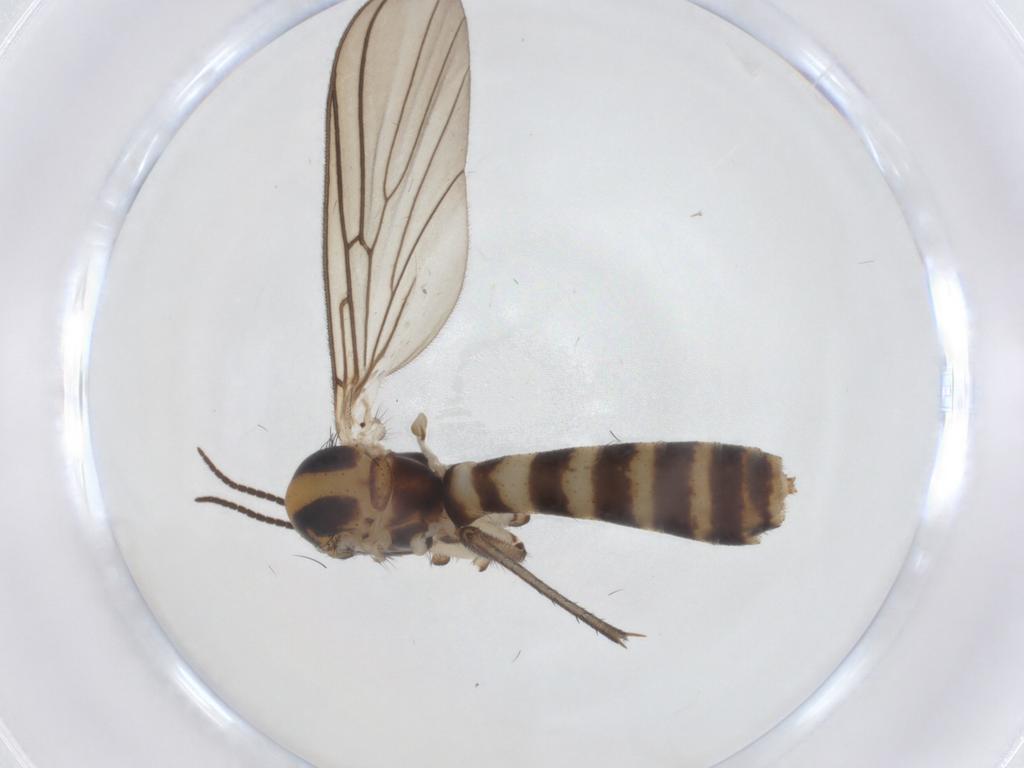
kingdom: Animalia
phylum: Arthropoda
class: Insecta
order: Diptera
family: Mycetophilidae
